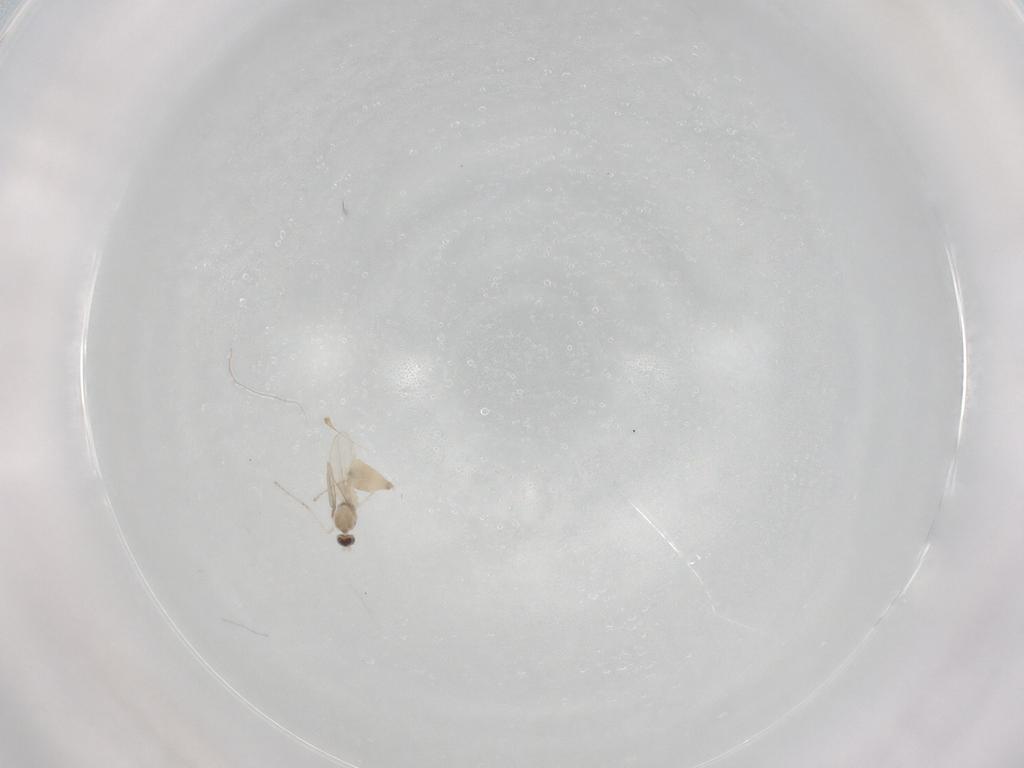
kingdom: Animalia
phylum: Arthropoda
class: Insecta
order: Diptera
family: Cecidomyiidae
